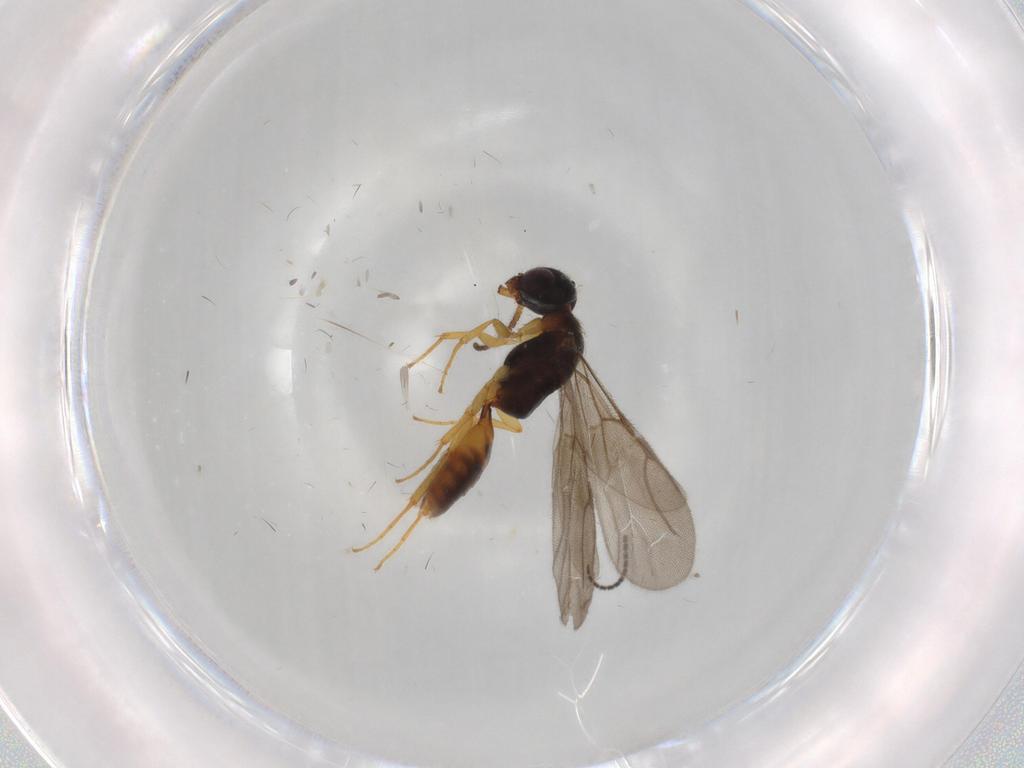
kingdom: Animalia
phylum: Arthropoda
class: Insecta
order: Hymenoptera
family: Bethylidae
